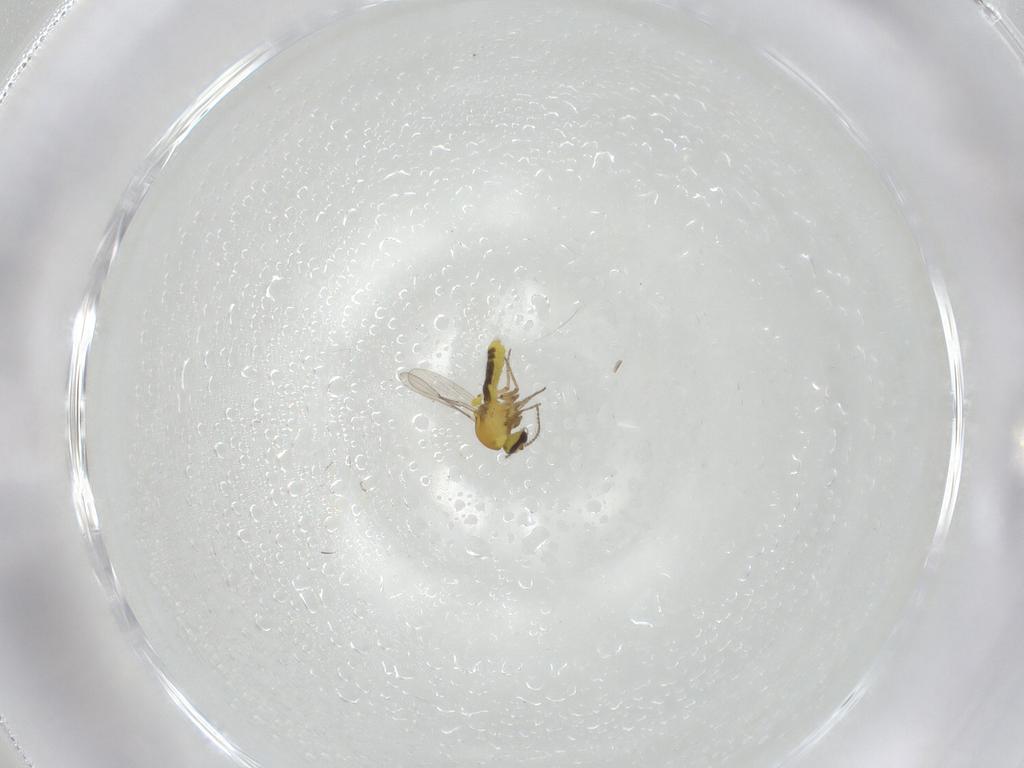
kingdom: Animalia
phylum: Arthropoda
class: Insecta
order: Diptera
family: Ceratopogonidae
